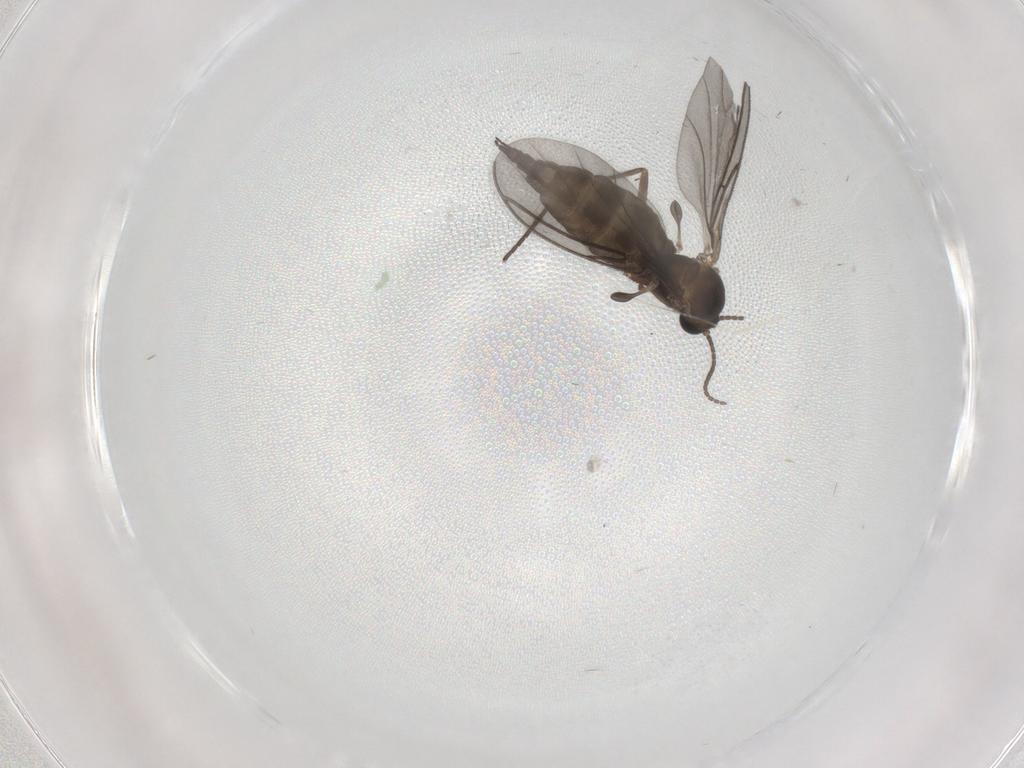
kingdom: Animalia
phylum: Arthropoda
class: Insecta
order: Diptera
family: Sciaridae
